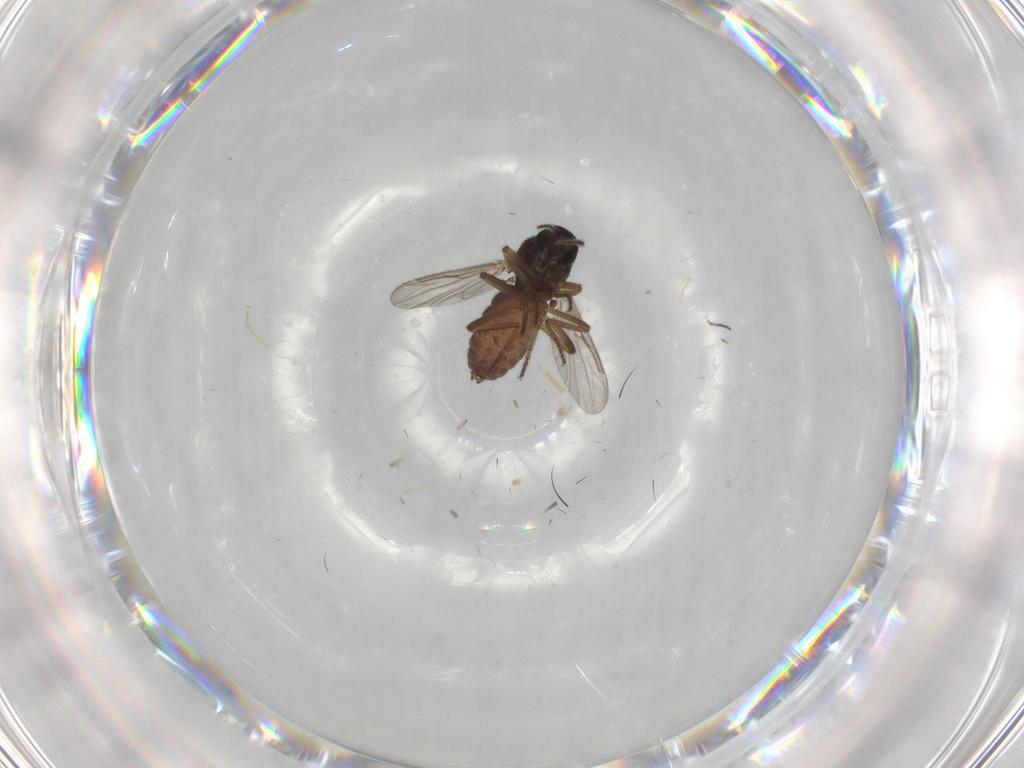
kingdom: Animalia
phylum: Arthropoda
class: Insecta
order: Diptera
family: Ceratopogonidae
